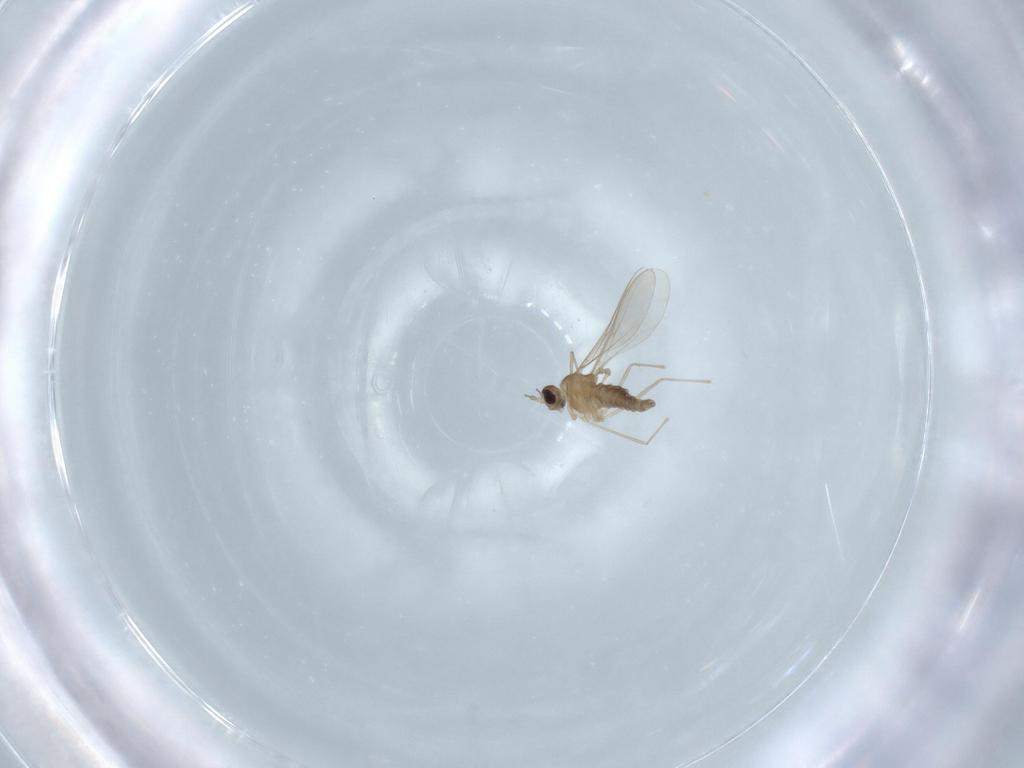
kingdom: Animalia
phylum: Arthropoda
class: Insecta
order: Diptera
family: Cecidomyiidae
